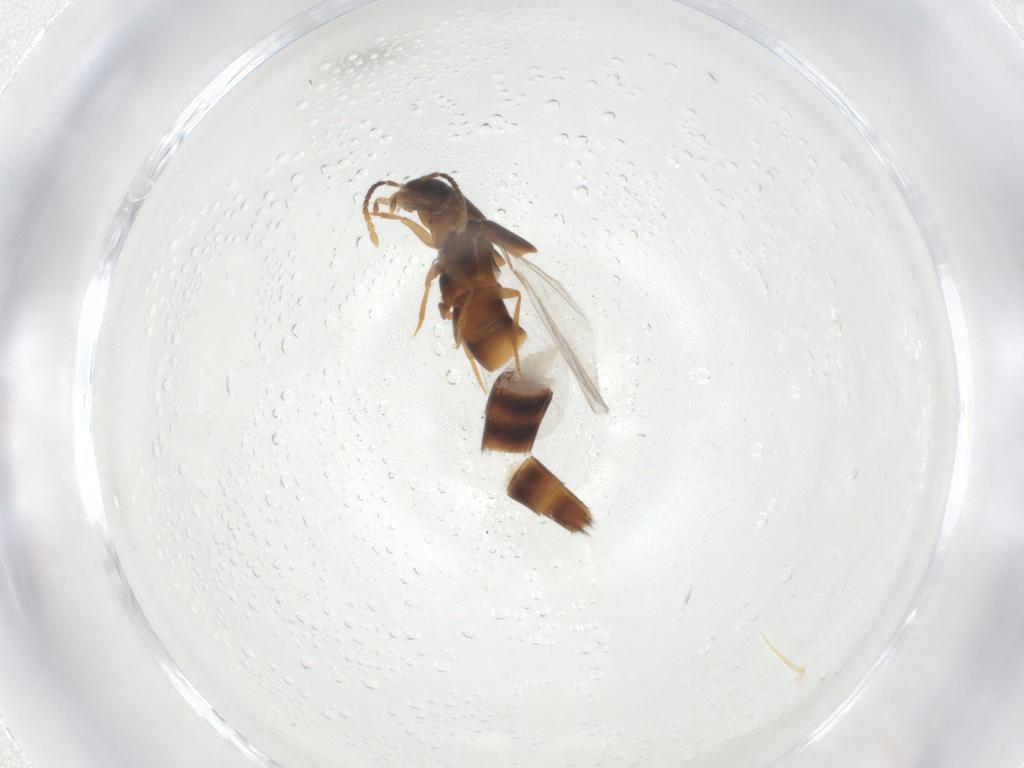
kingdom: Animalia
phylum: Arthropoda
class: Insecta
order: Coleoptera
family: Staphylinidae
